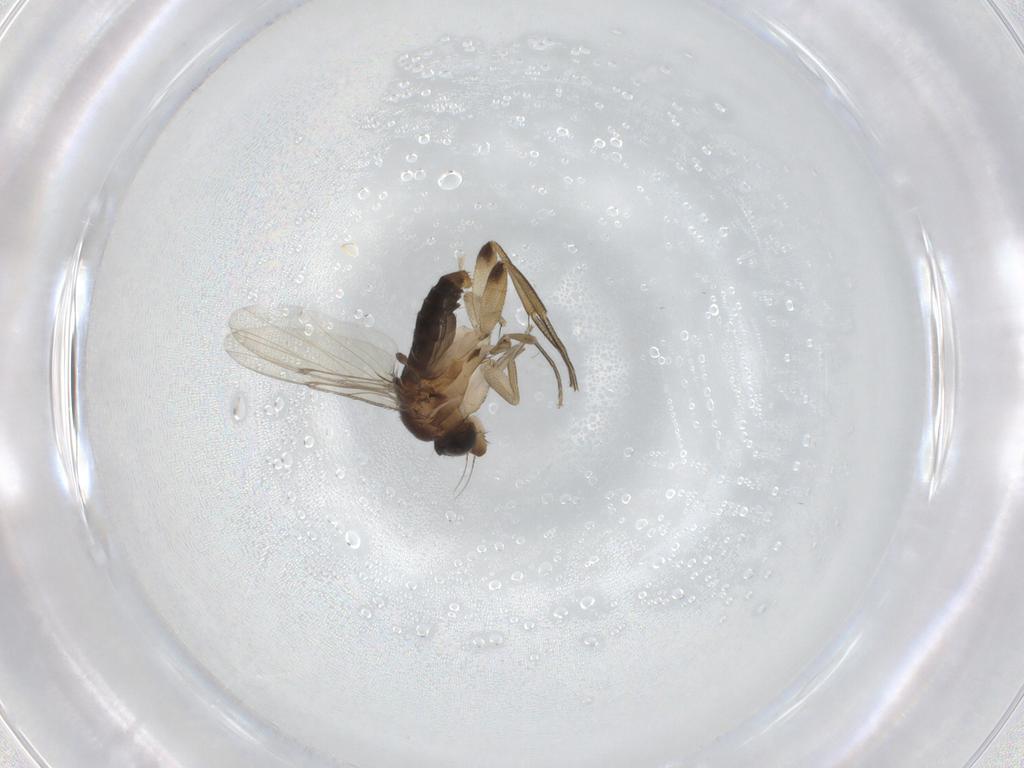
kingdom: Animalia
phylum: Arthropoda
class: Insecta
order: Diptera
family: Phoridae
